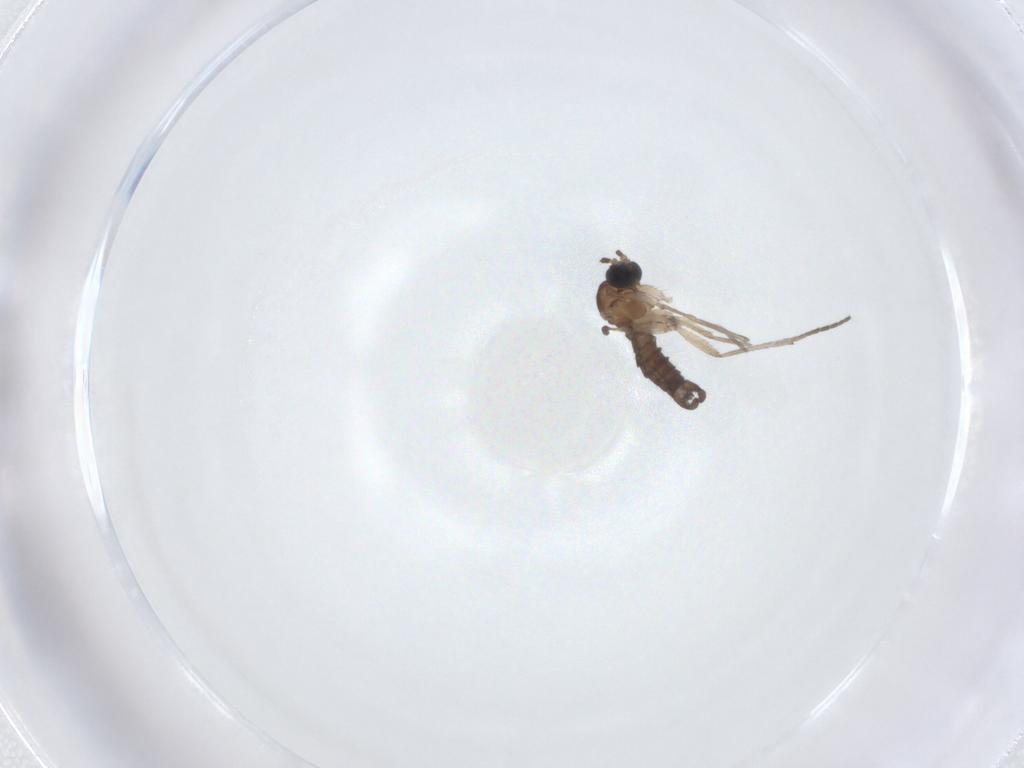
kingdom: Animalia
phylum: Arthropoda
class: Insecta
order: Diptera
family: Sciaridae
